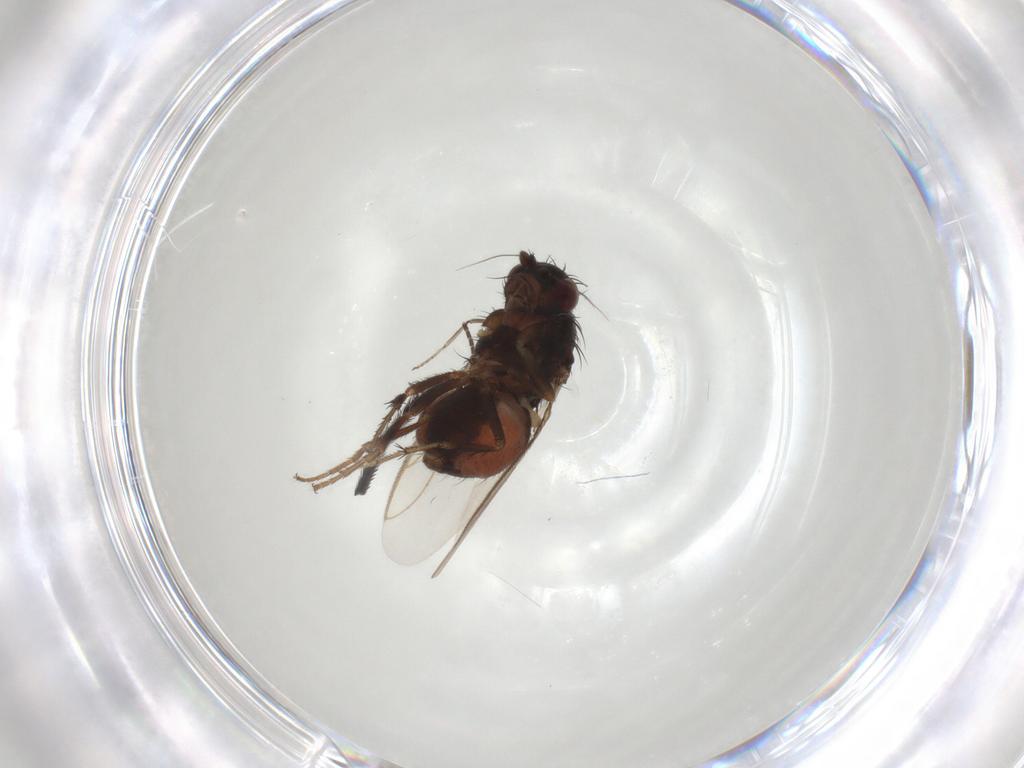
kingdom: Animalia
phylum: Arthropoda
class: Insecta
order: Diptera
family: Sphaeroceridae
